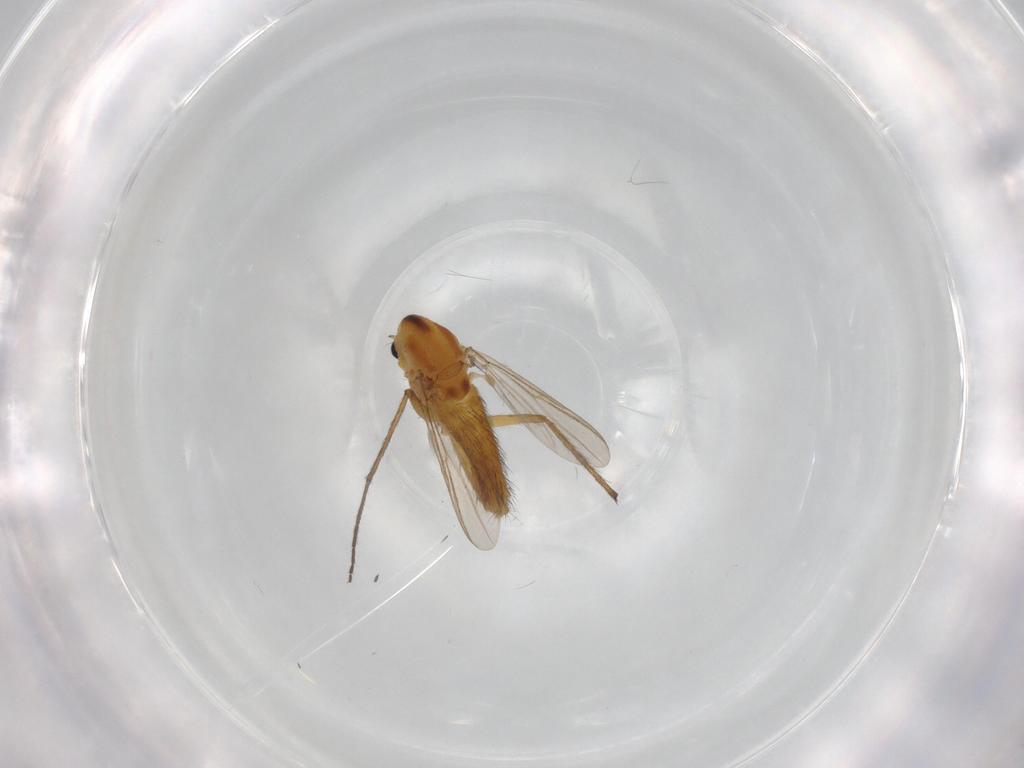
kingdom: Animalia
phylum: Arthropoda
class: Insecta
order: Diptera
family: Chironomidae
